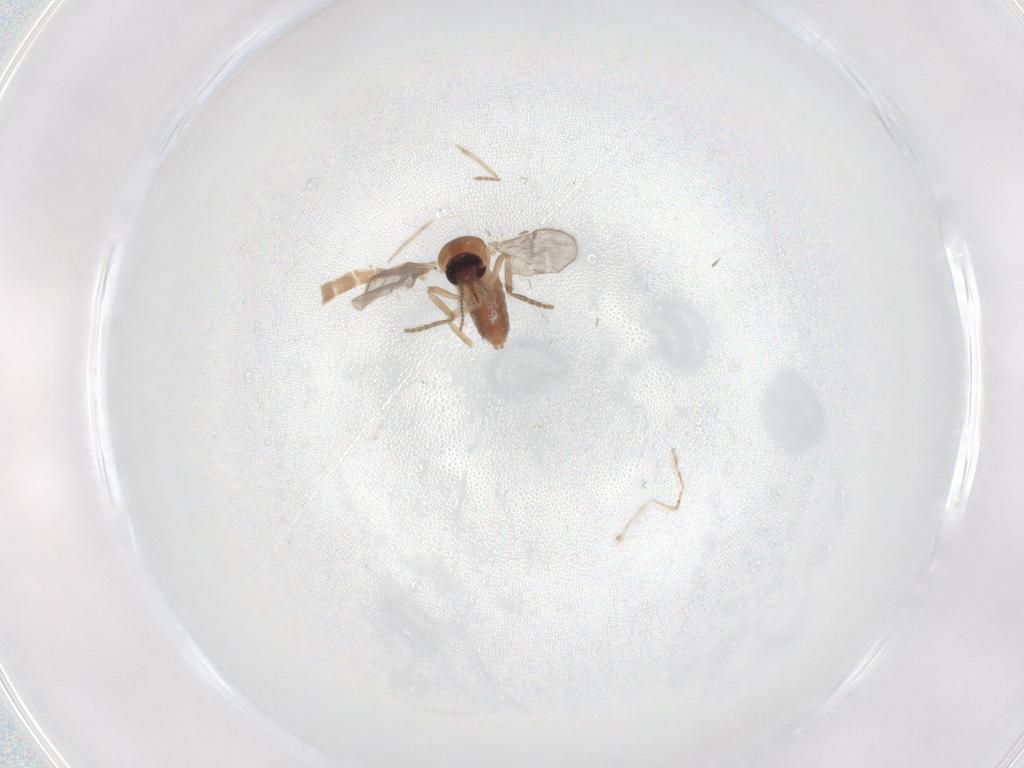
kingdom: Animalia
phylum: Arthropoda
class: Insecta
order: Diptera
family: Ceratopogonidae
